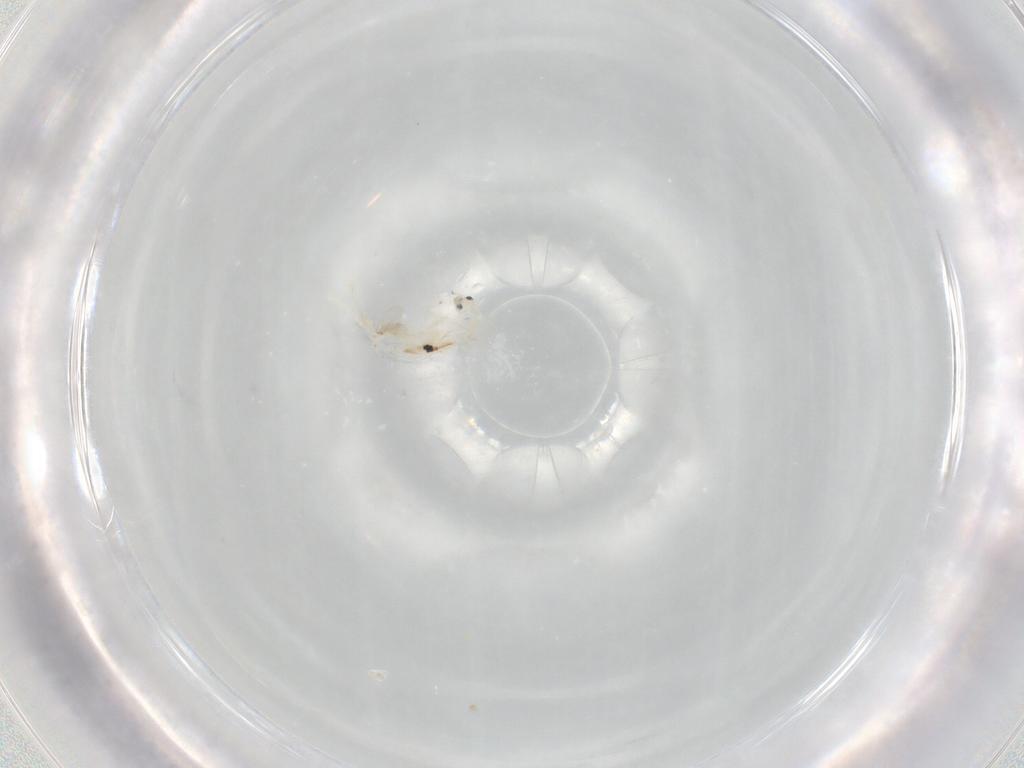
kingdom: Animalia
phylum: Arthropoda
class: Collembola
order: Entomobryomorpha
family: Entomobryidae
